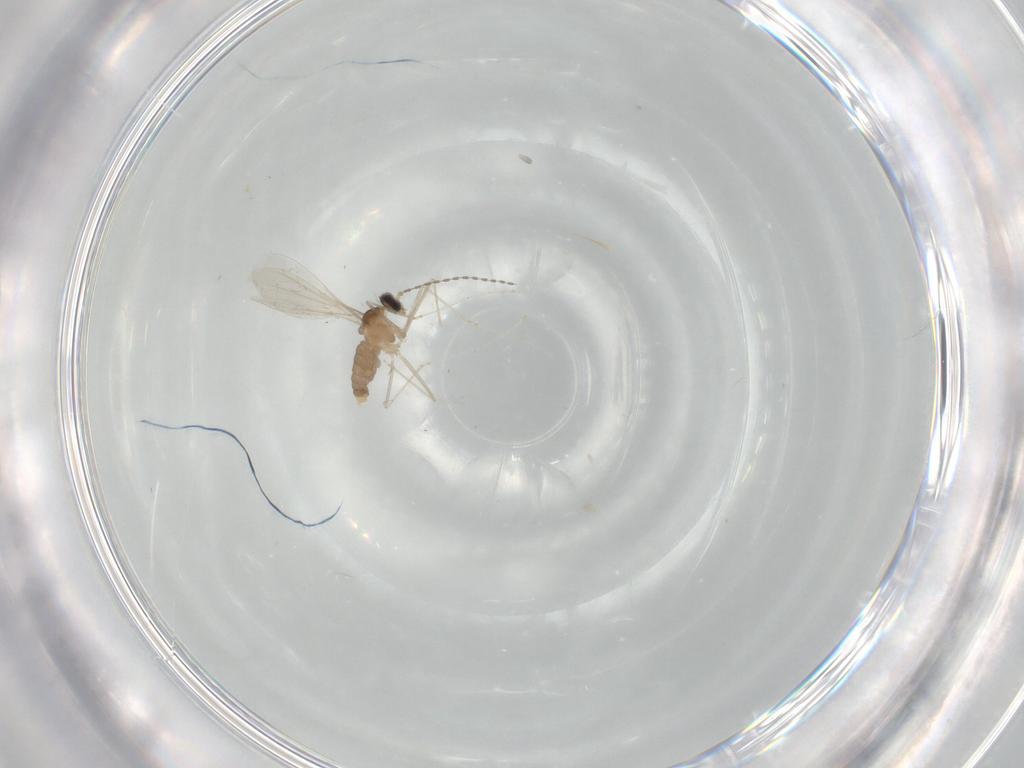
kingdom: Animalia
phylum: Arthropoda
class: Insecta
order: Diptera
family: Cecidomyiidae
